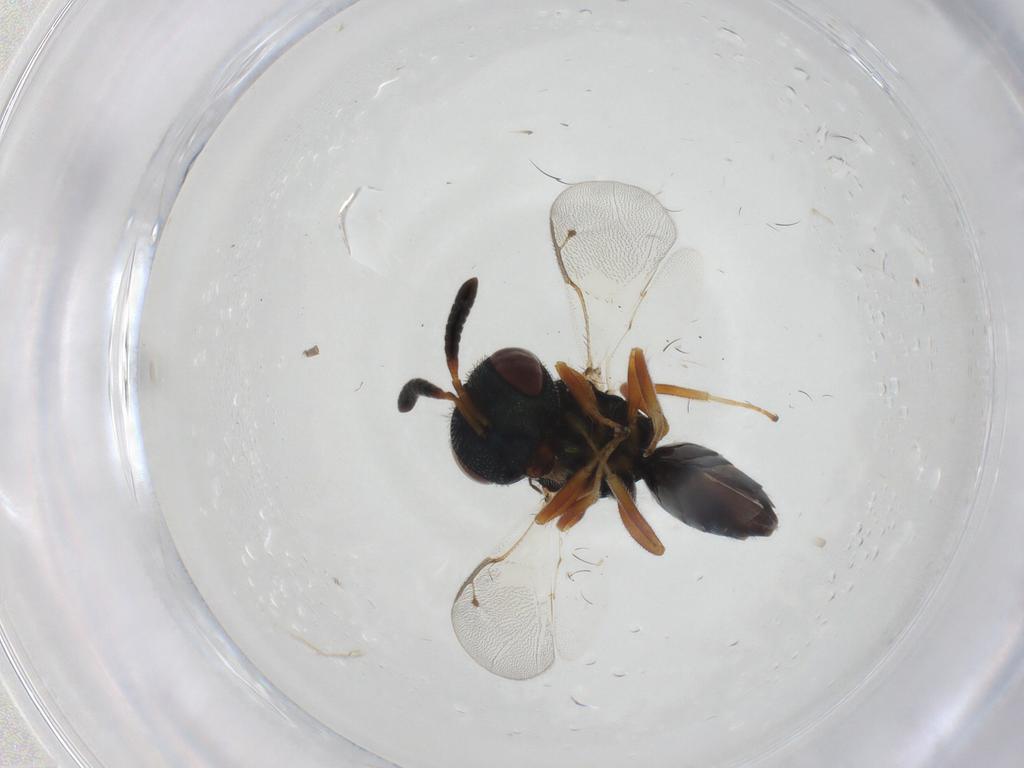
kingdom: Animalia
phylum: Arthropoda
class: Insecta
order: Hymenoptera
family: Pteromalidae
